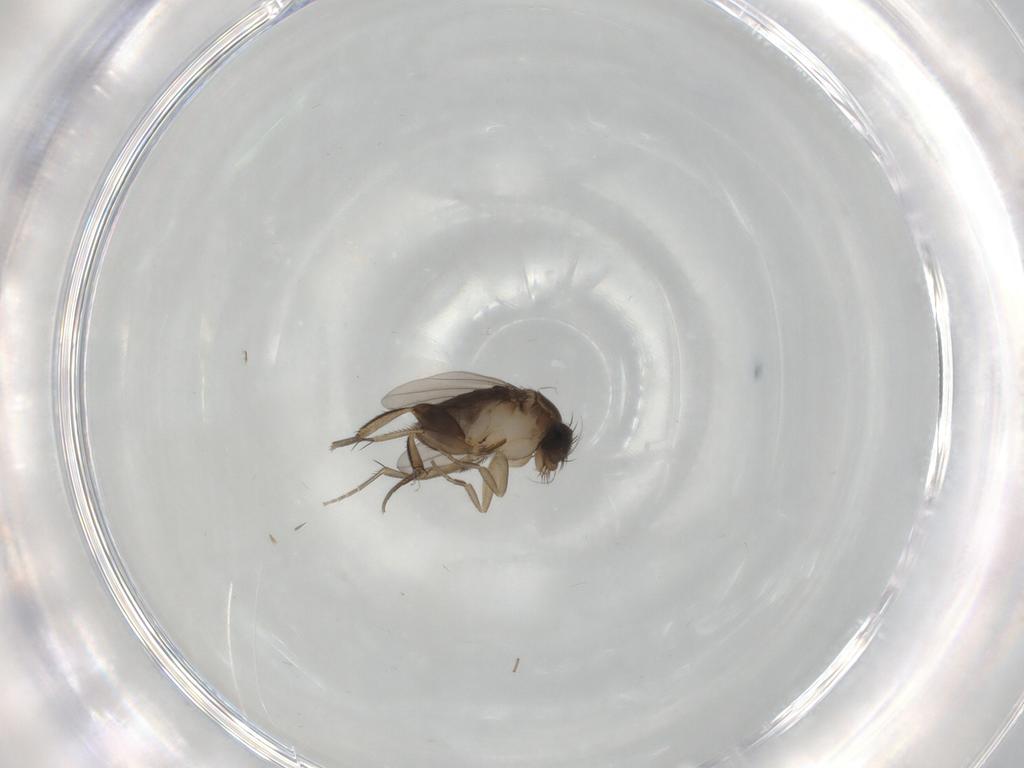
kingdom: Animalia
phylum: Arthropoda
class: Insecta
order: Diptera
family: Phoridae
